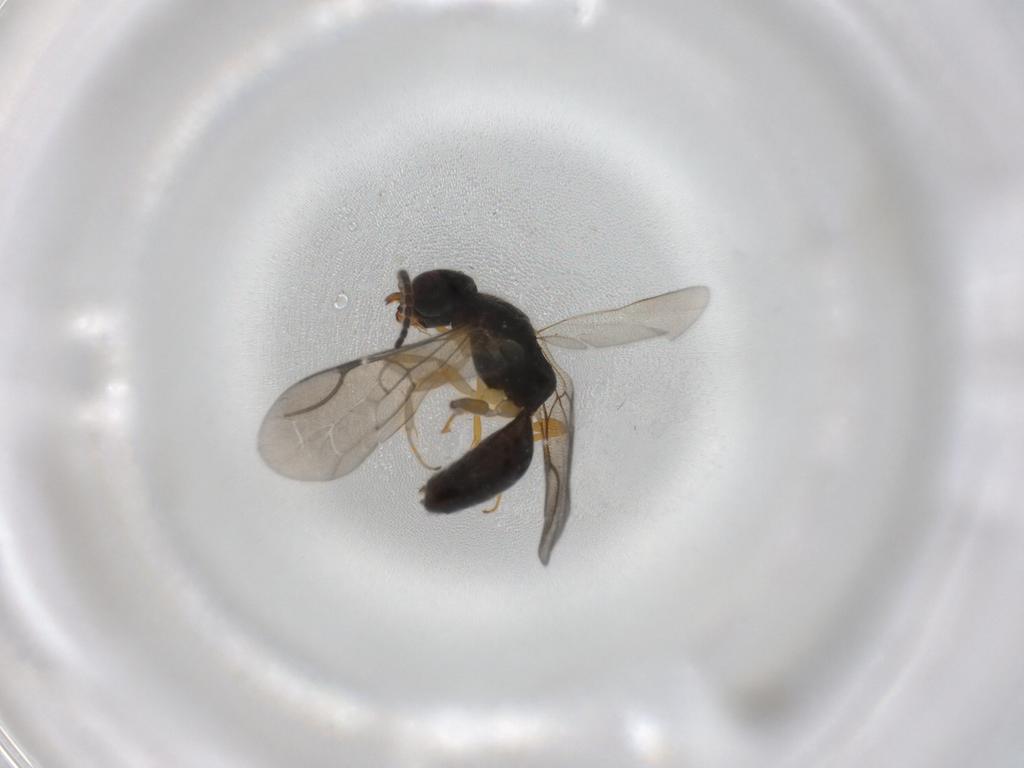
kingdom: Animalia
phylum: Arthropoda
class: Insecta
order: Hymenoptera
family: Bethylidae
